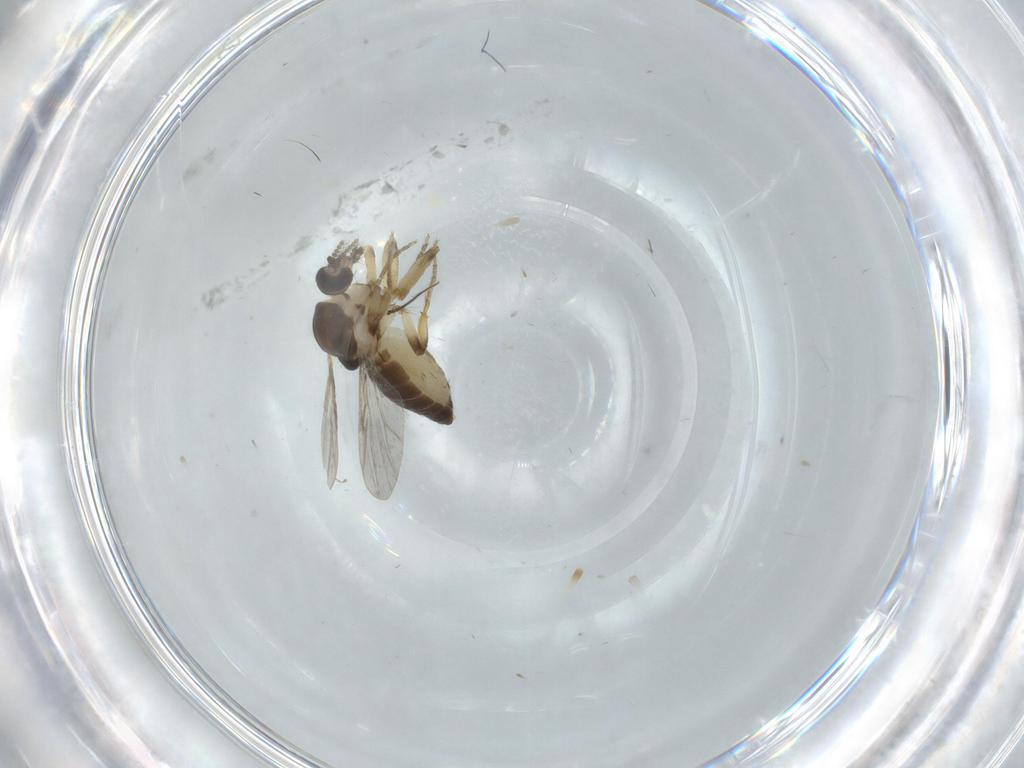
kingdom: Animalia
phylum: Arthropoda
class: Insecta
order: Diptera
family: Ceratopogonidae
